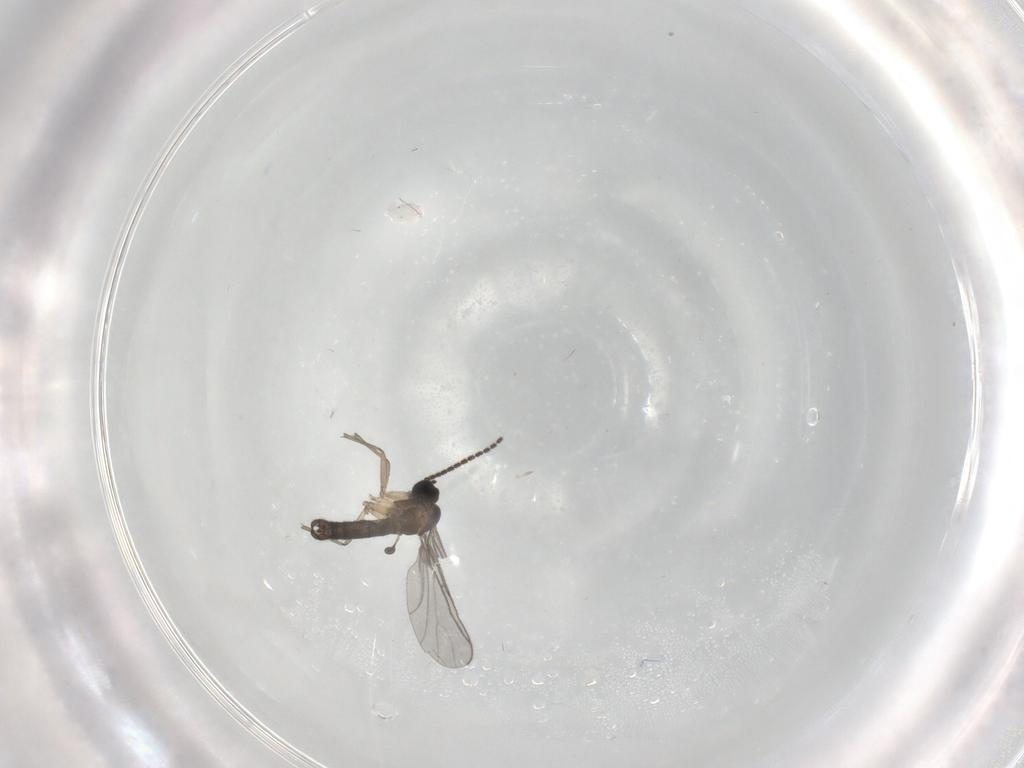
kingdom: Animalia
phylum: Arthropoda
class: Insecta
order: Diptera
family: Sciaridae
